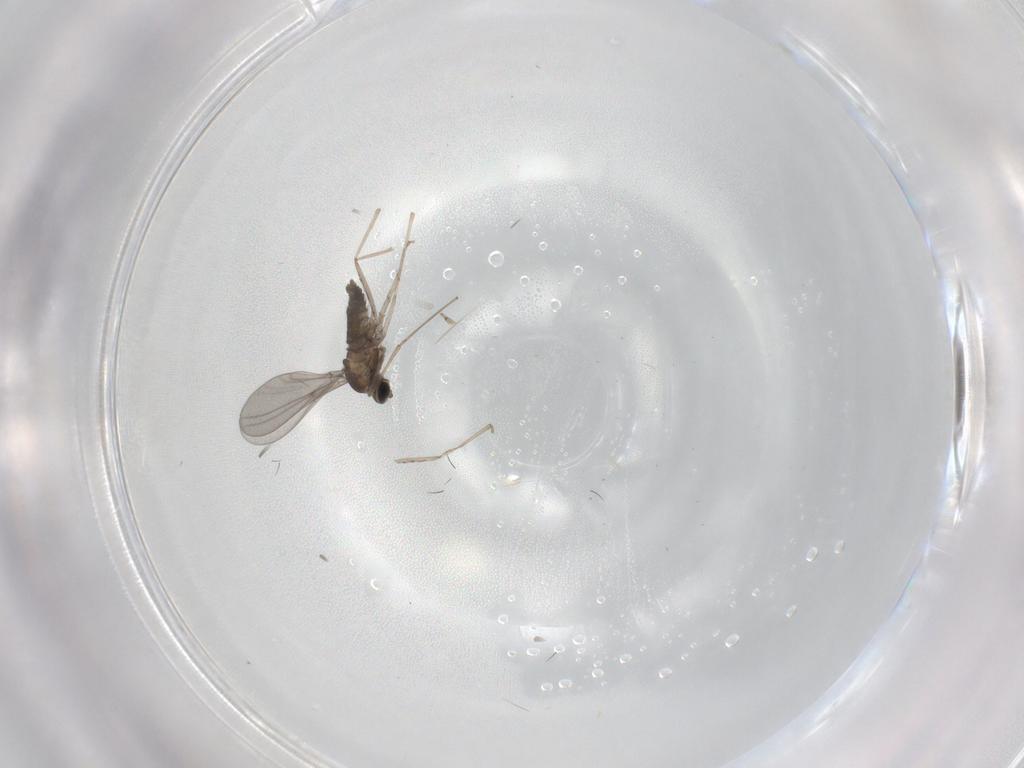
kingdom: Animalia
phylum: Arthropoda
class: Insecta
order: Diptera
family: Cecidomyiidae
